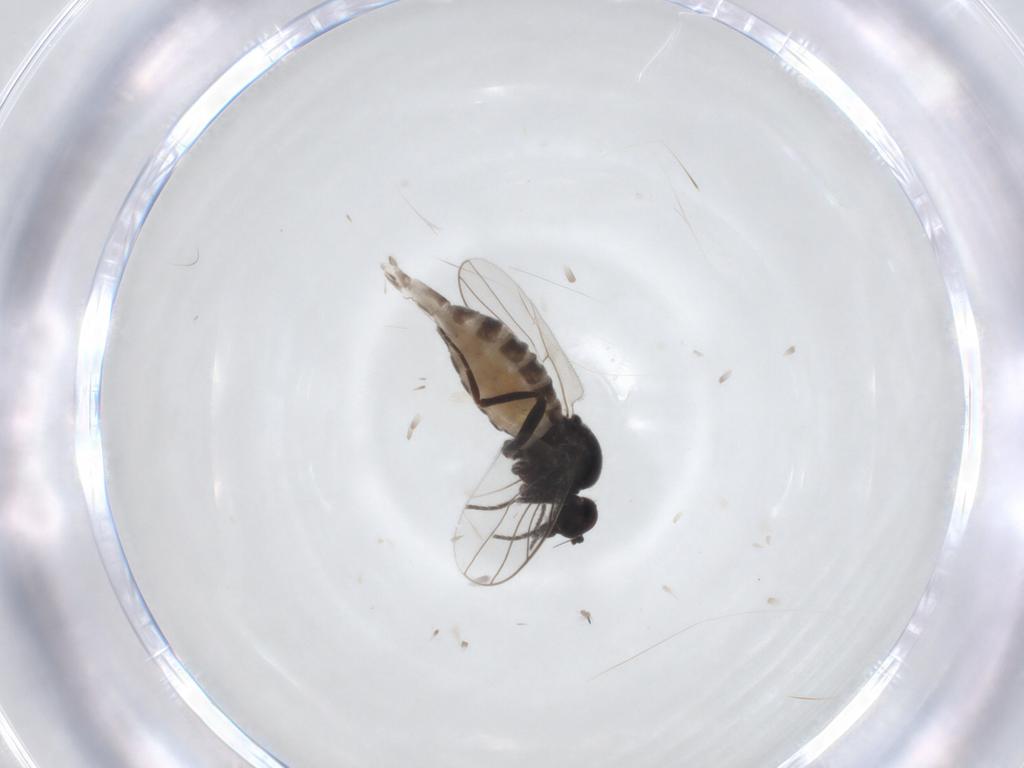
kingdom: Animalia
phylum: Arthropoda
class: Insecta
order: Diptera
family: Hybotidae
